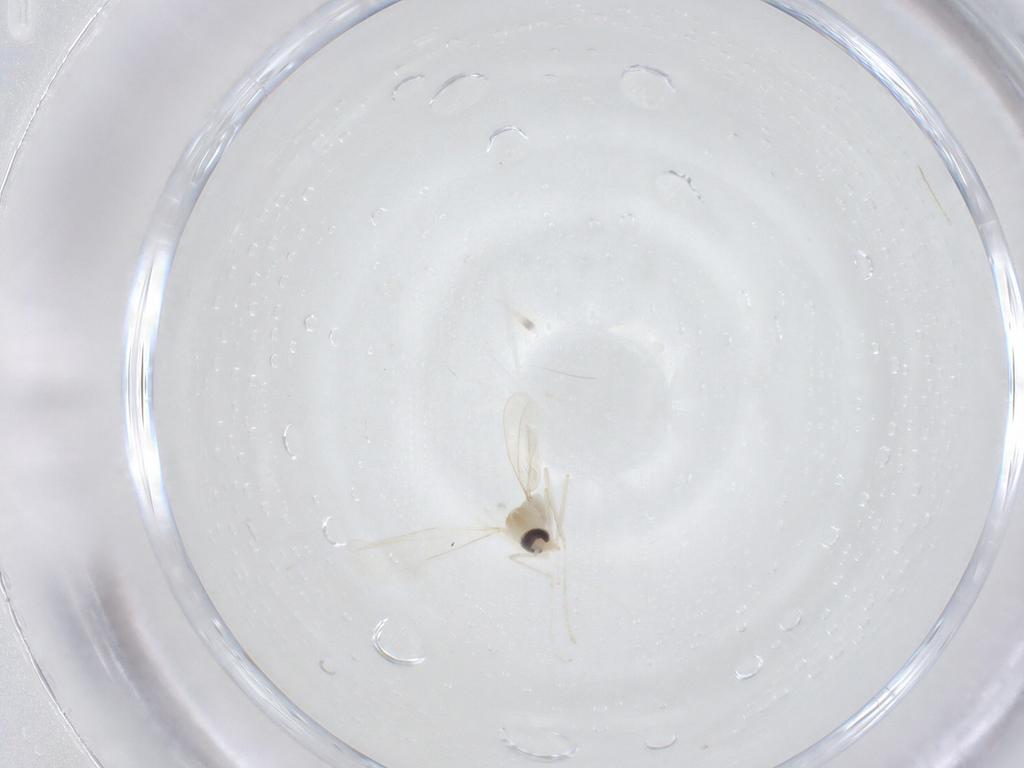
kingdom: Animalia
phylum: Arthropoda
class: Insecta
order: Diptera
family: Cecidomyiidae
